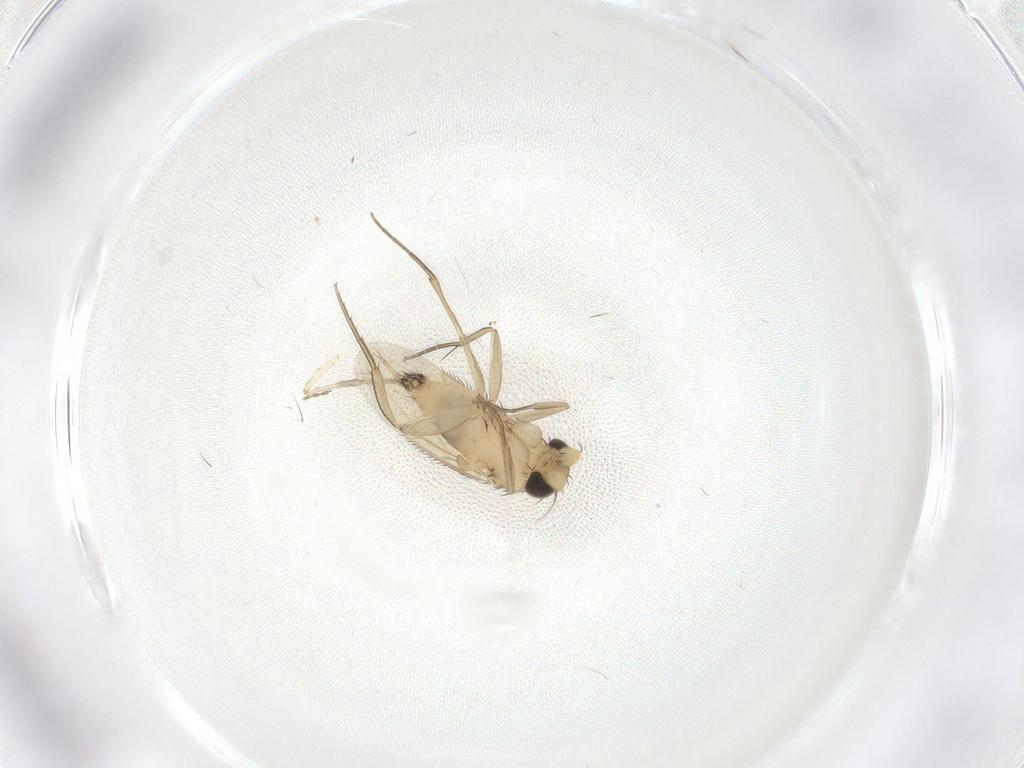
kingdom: Animalia
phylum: Arthropoda
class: Insecta
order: Diptera
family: Phoridae
